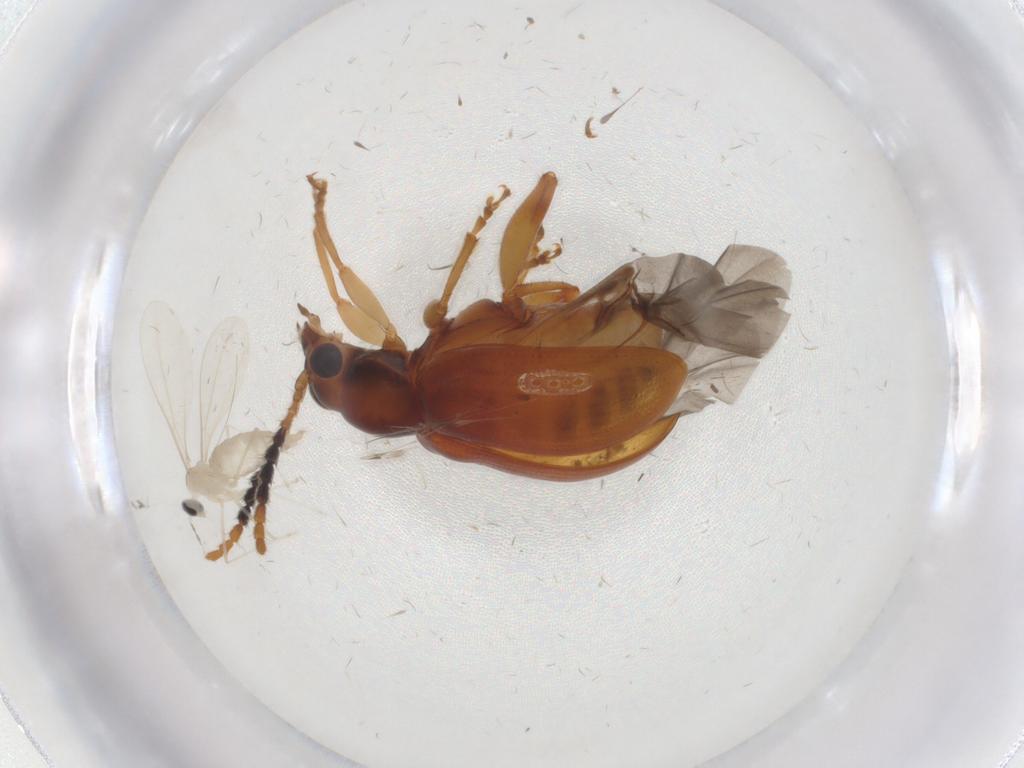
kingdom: Animalia
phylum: Arthropoda
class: Insecta
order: Coleoptera
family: Chrysomelidae
